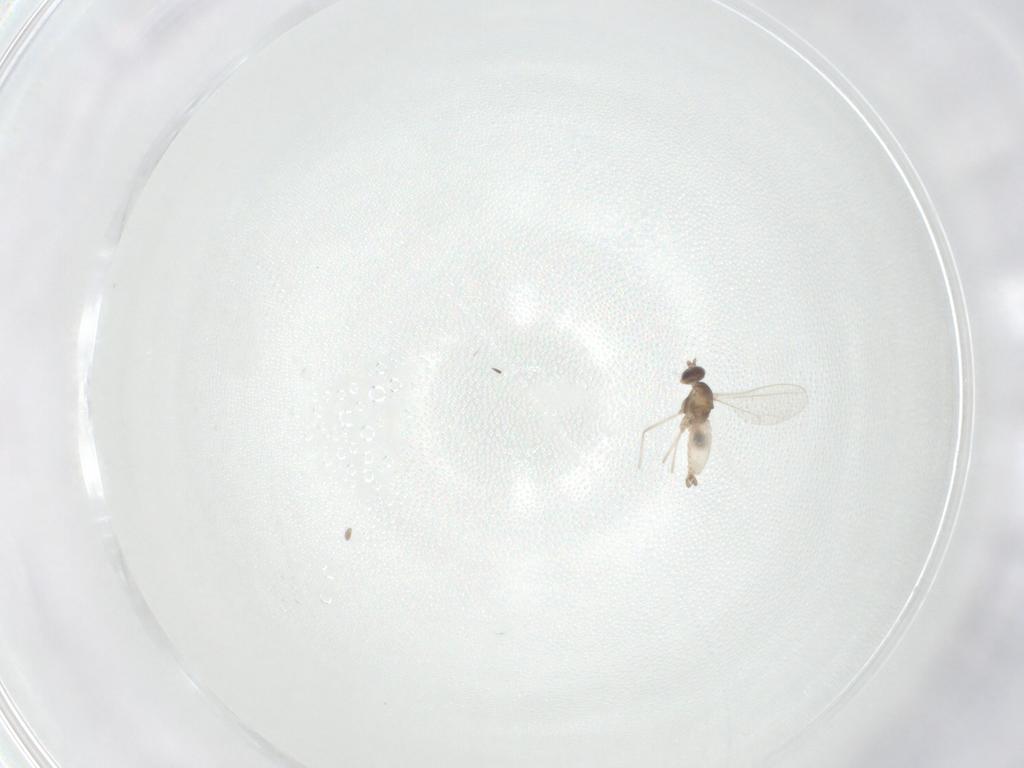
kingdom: Animalia
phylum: Arthropoda
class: Insecta
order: Diptera
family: Cecidomyiidae
